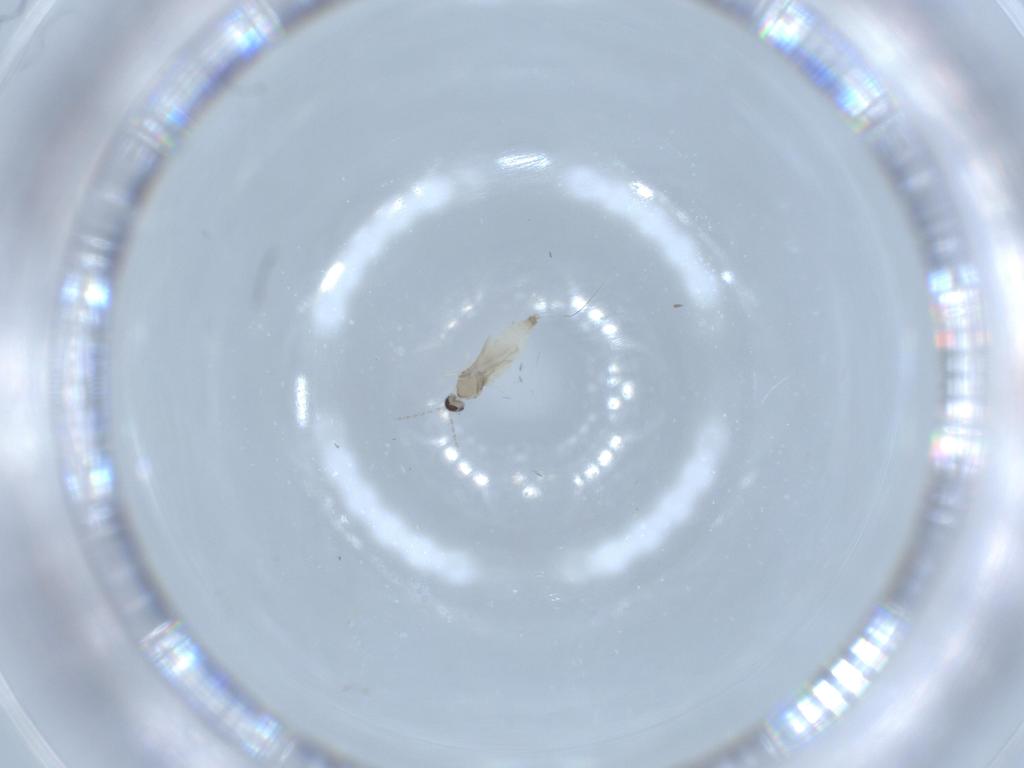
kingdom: Animalia
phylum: Arthropoda
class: Insecta
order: Diptera
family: Cecidomyiidae
